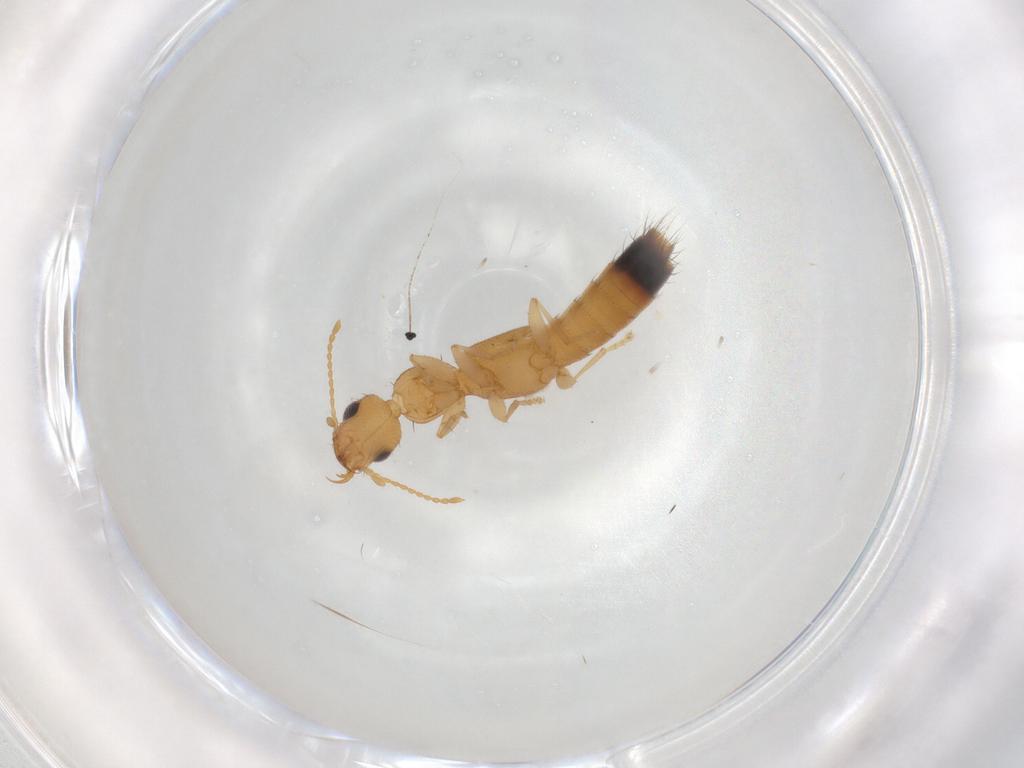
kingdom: Animalia
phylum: Arthropoda
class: Insecta
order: Coleoptera
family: Staphylinidae
